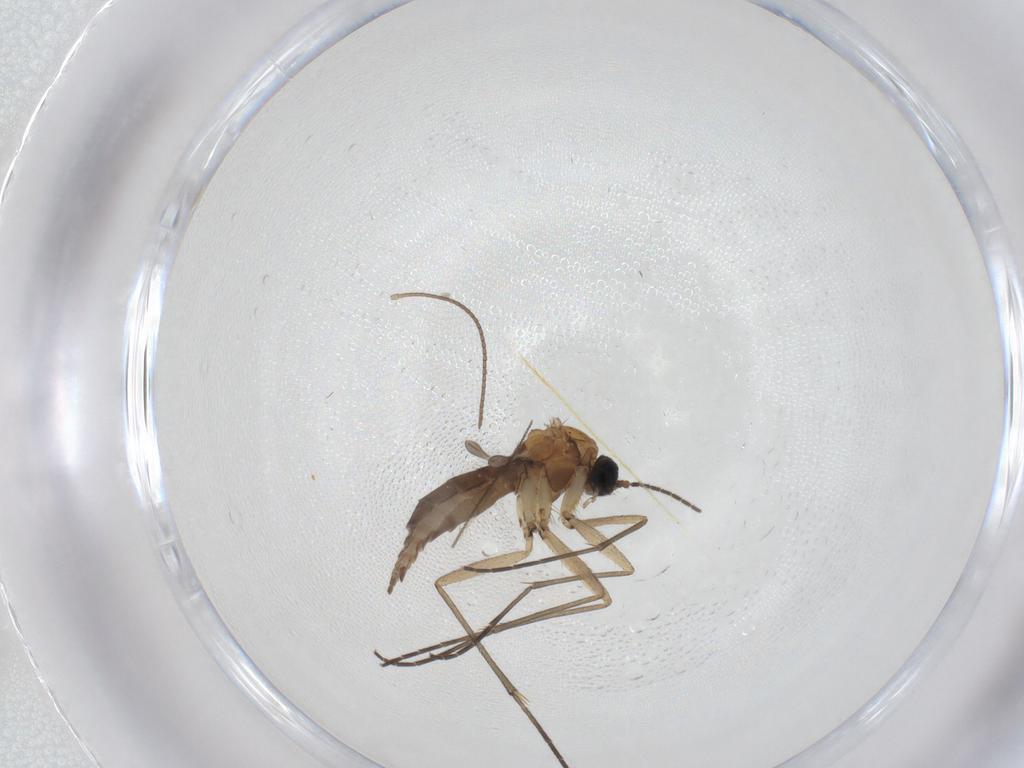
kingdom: Animalia
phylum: Arthropoda
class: Insecta
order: Diptera
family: Sciaridae
